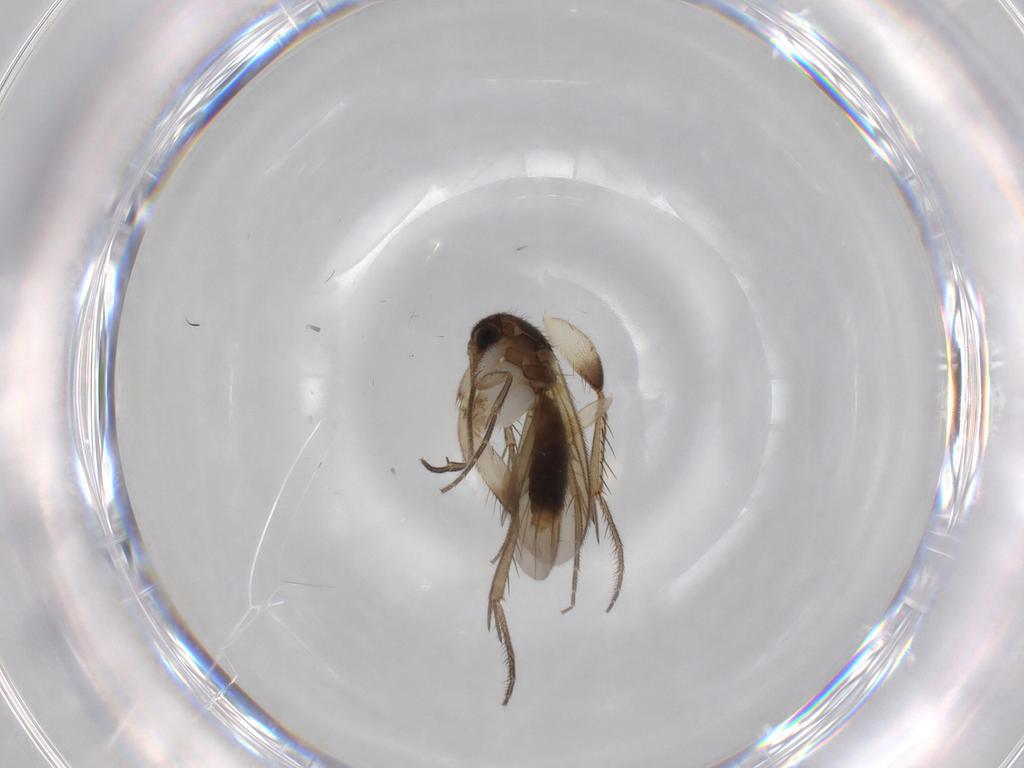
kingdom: Animalia
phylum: Arthropoda
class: Insecta
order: Diptera
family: Mycetophilidae
